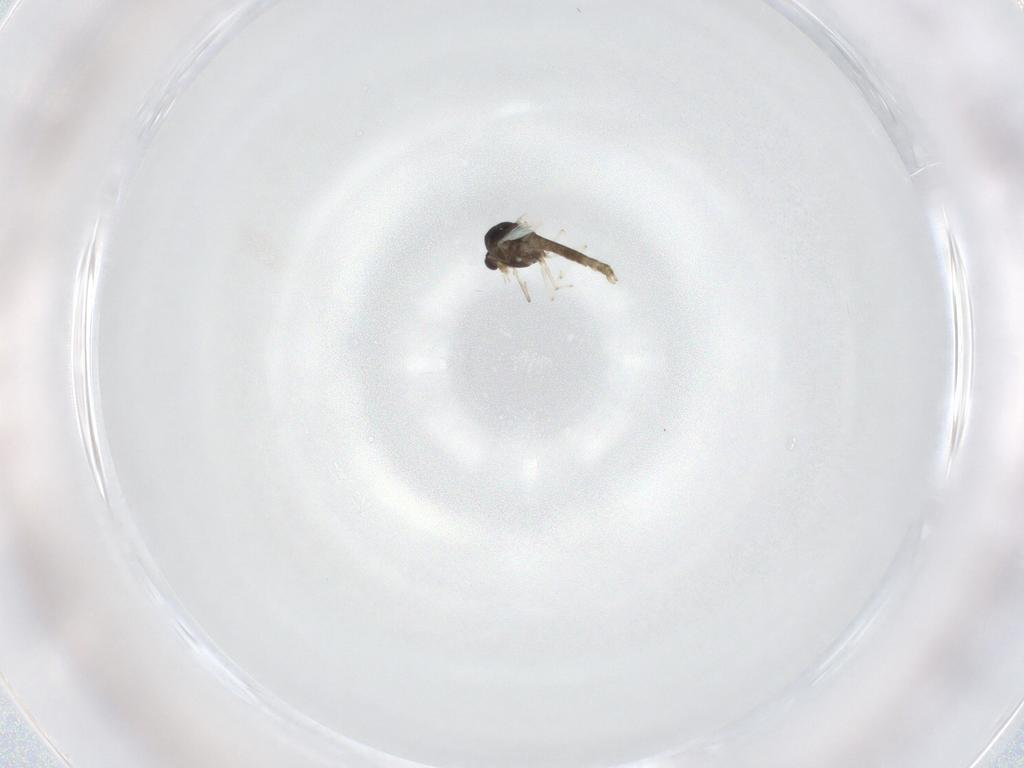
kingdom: Animalia
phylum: Arthropoda
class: Insecta
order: Diptera
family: Chironomidae
